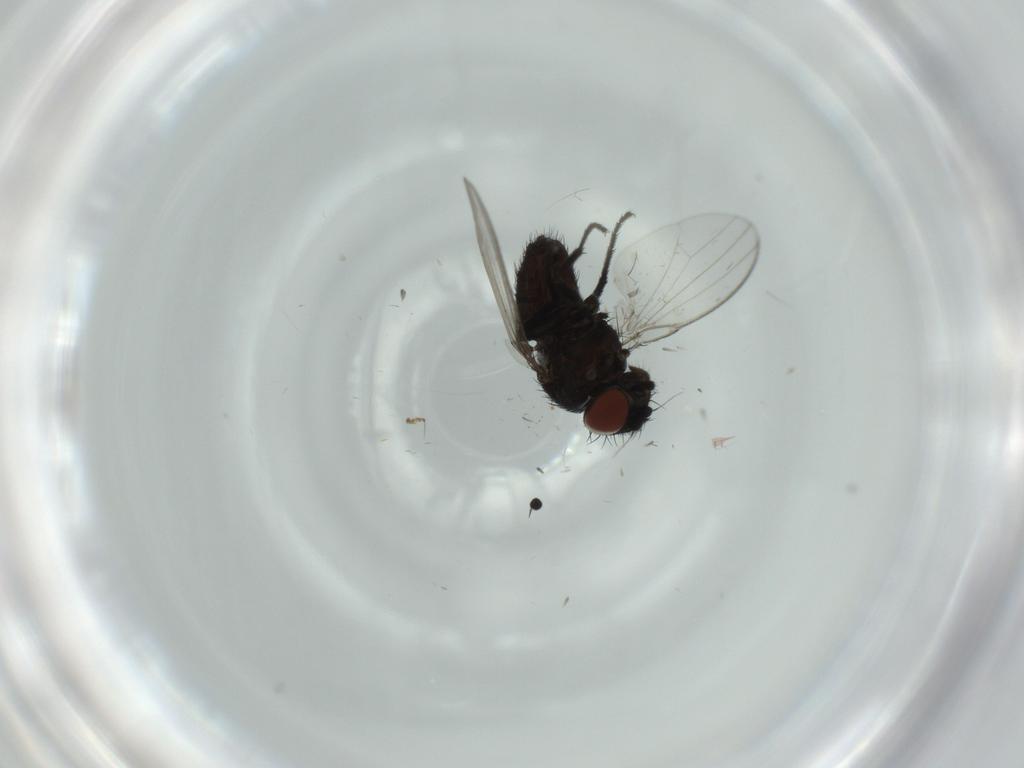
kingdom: Animalia
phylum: Arthropoda
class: Insecta
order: Diptera
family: Milichiidae
